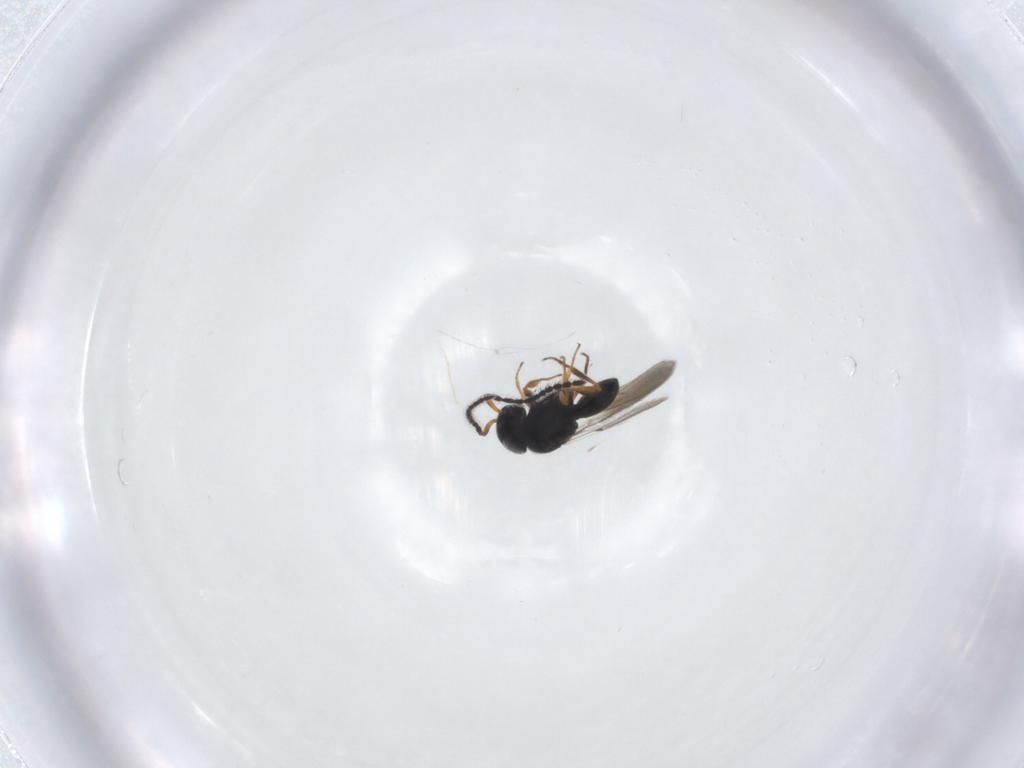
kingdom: Animalia
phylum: Arthropoda
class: Insecta
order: Hymenoptera
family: Scelionidae
